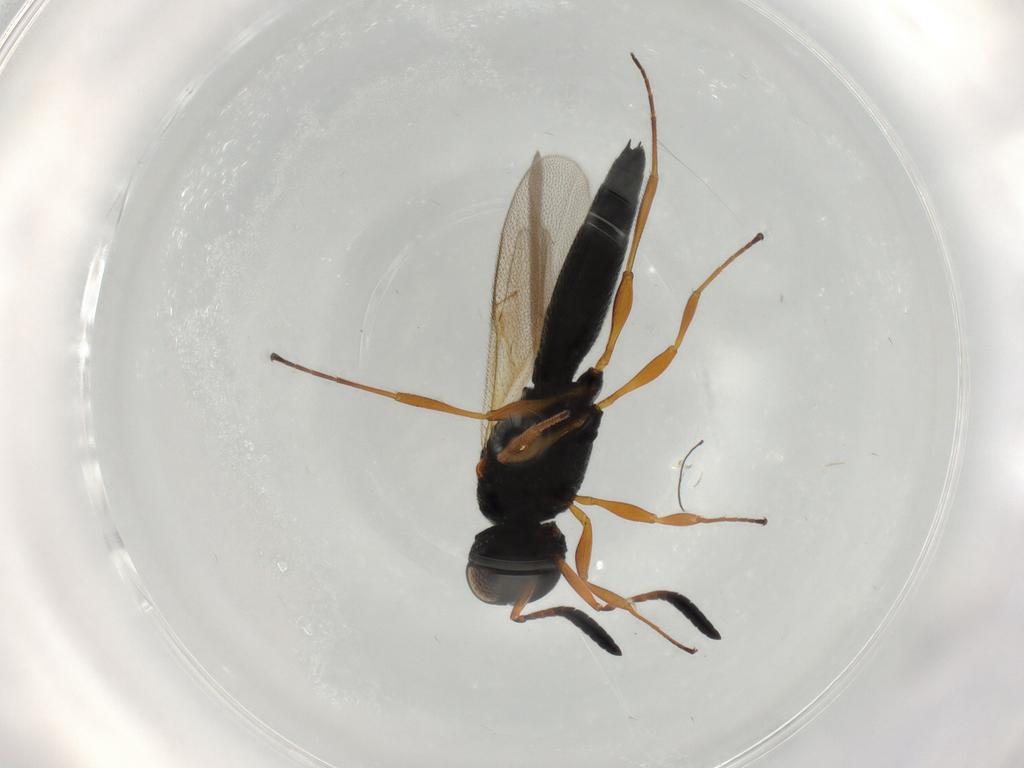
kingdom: Animalia
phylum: Arthropoda
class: Insecta
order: Hymenoptera
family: Scelionidae
